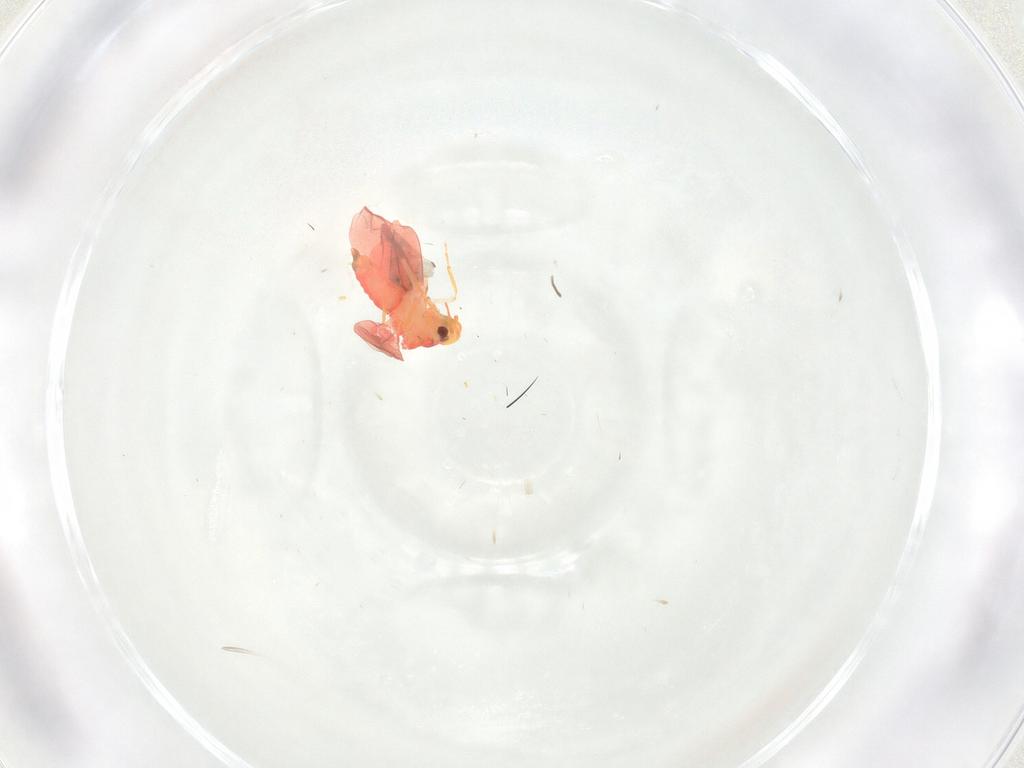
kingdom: Animalia
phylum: Arthropoda
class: Insecta
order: Hemiptera
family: Aleyrodidae
